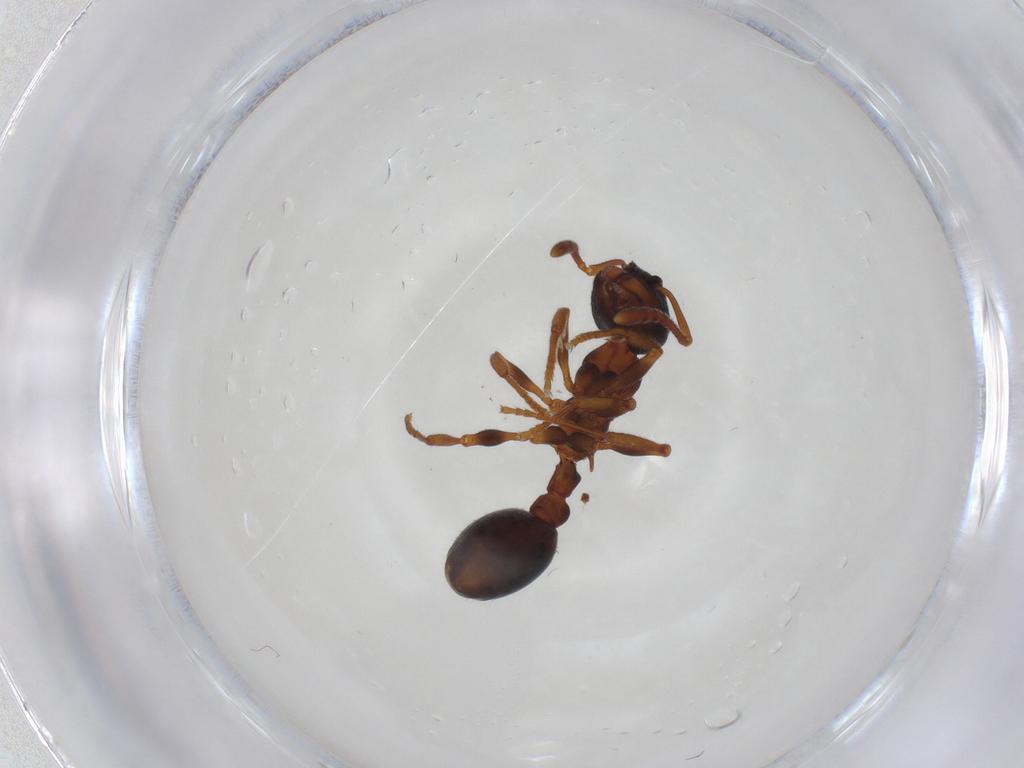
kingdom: Animalia
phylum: Arthropoda
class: Insecta
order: Hymenoptera
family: Formicidae
